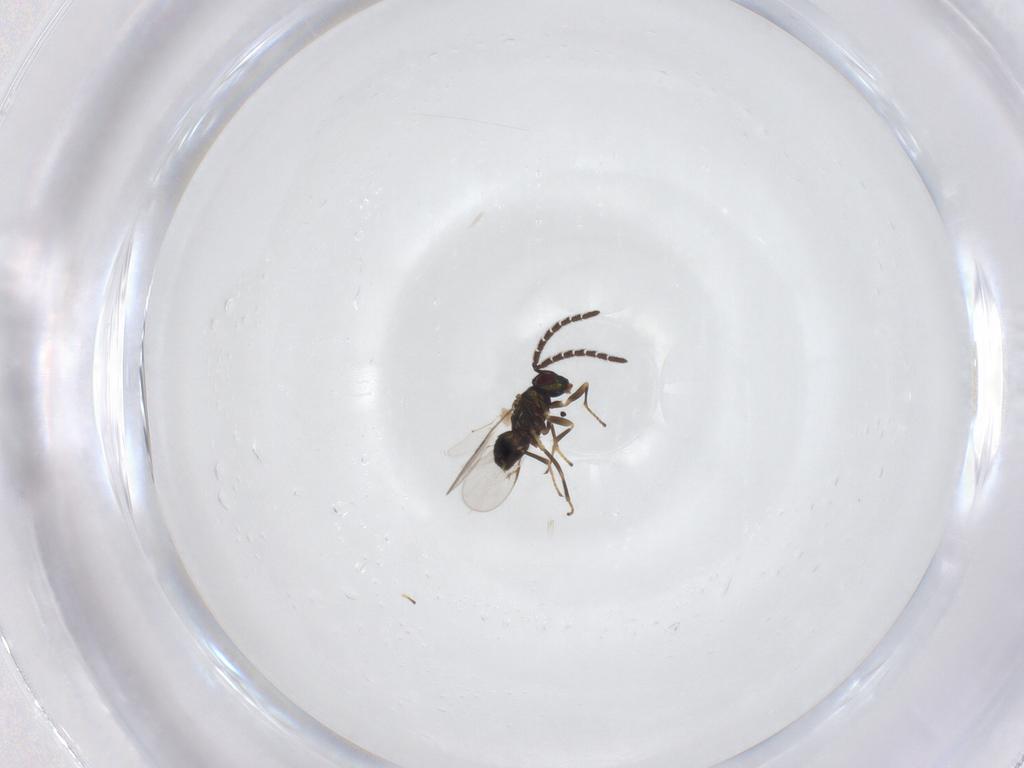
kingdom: Animalia
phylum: Arthropoda
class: Insecta
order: Hymenoptera
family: Encyrtidae
